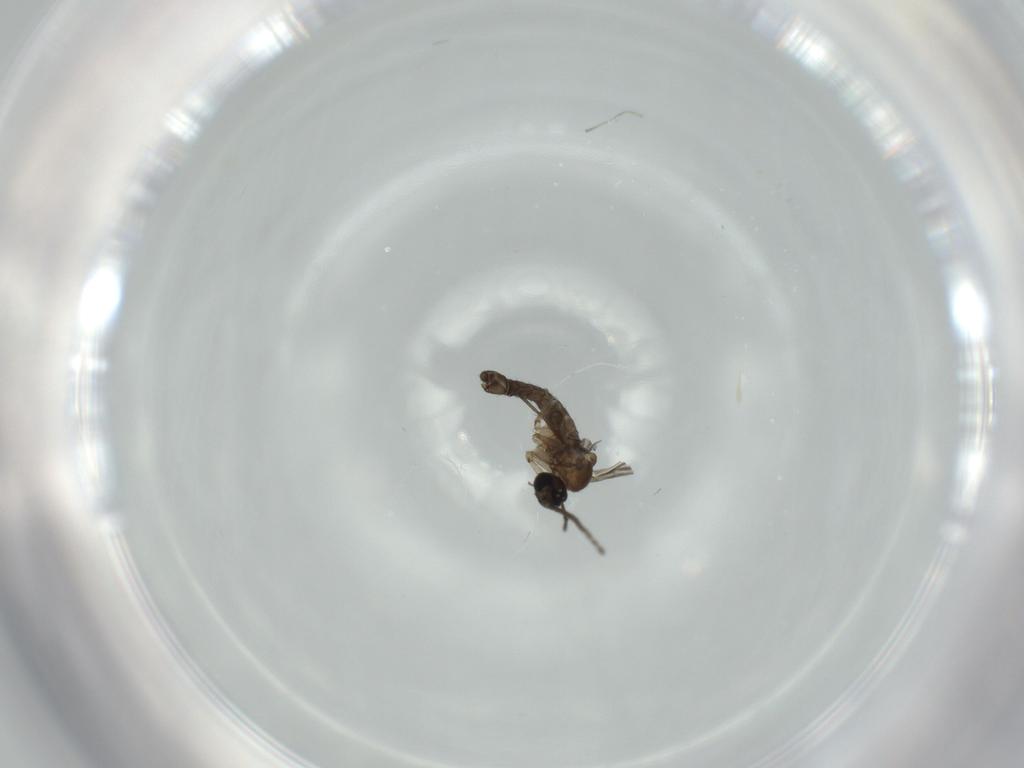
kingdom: Animalia
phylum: Arthropoda
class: Insecta
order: Diptera
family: Sciaridae
